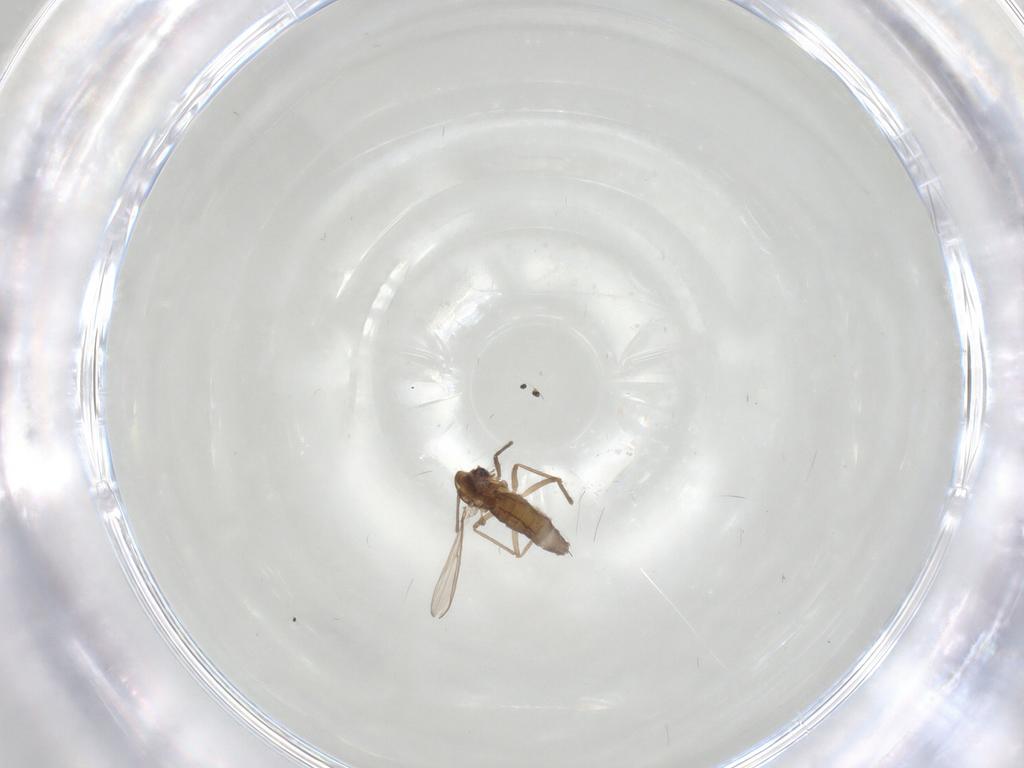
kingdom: Animalia
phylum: Arthropoda
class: Insecta
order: Diptera
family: Chironomidae
